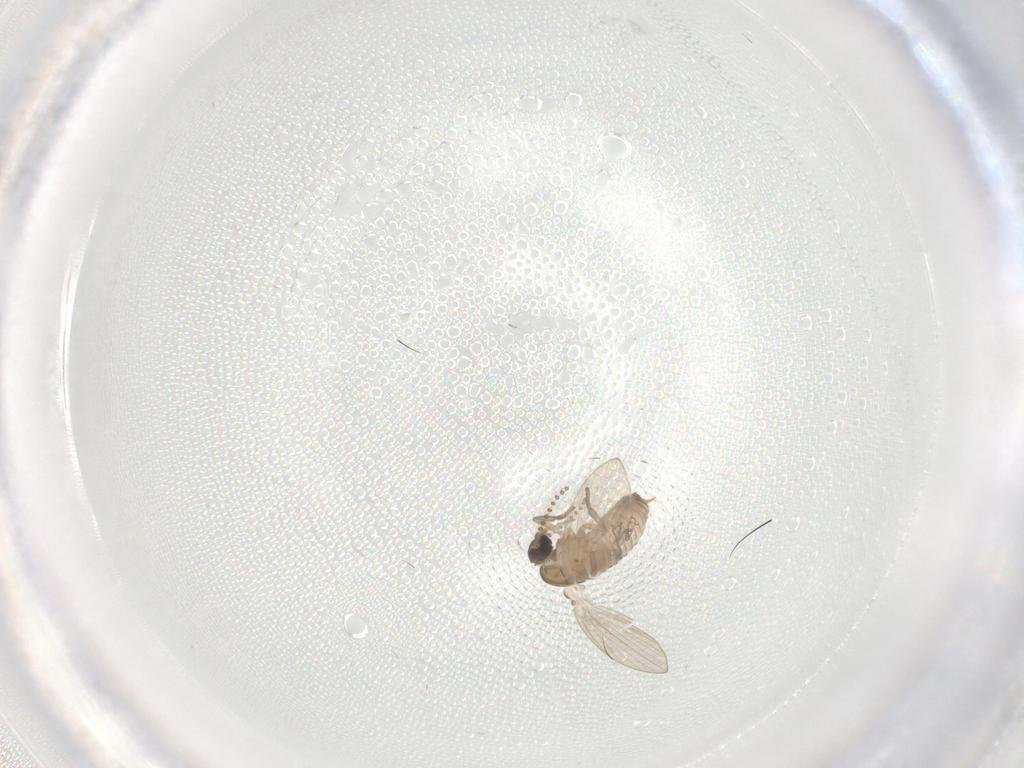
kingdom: Animalia
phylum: Arthropoda
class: Insecta
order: Diptera
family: Psychodidae
